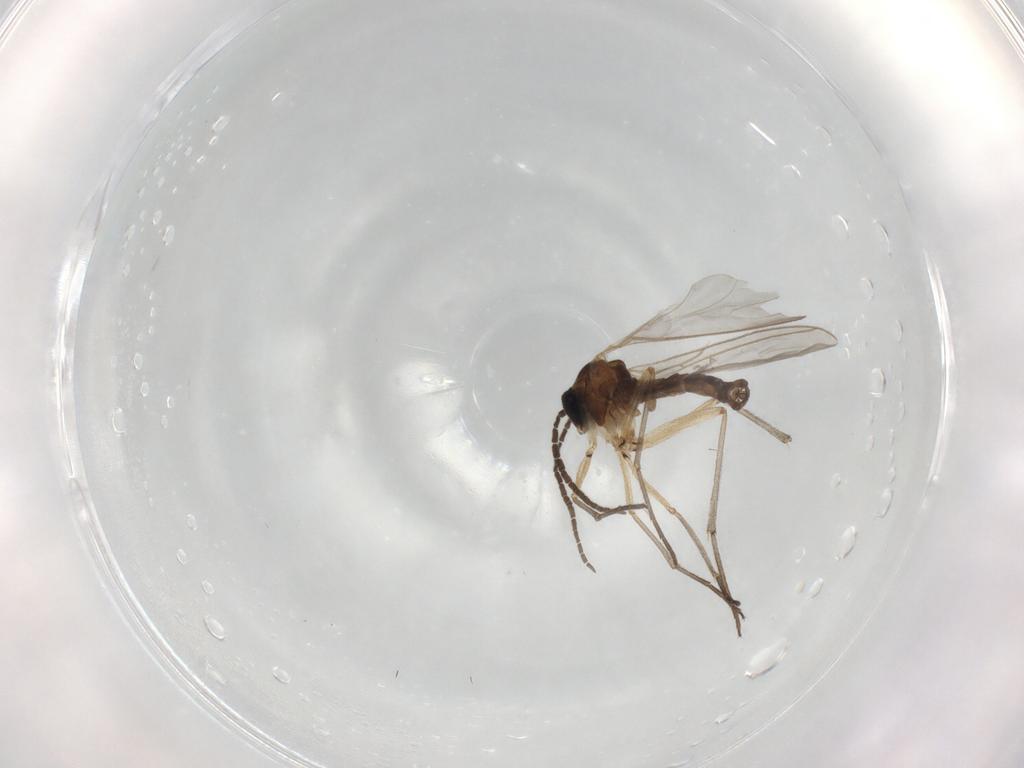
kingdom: Animalia
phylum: Arthropoda
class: Insecta
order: Diptera
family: Sciaridae
